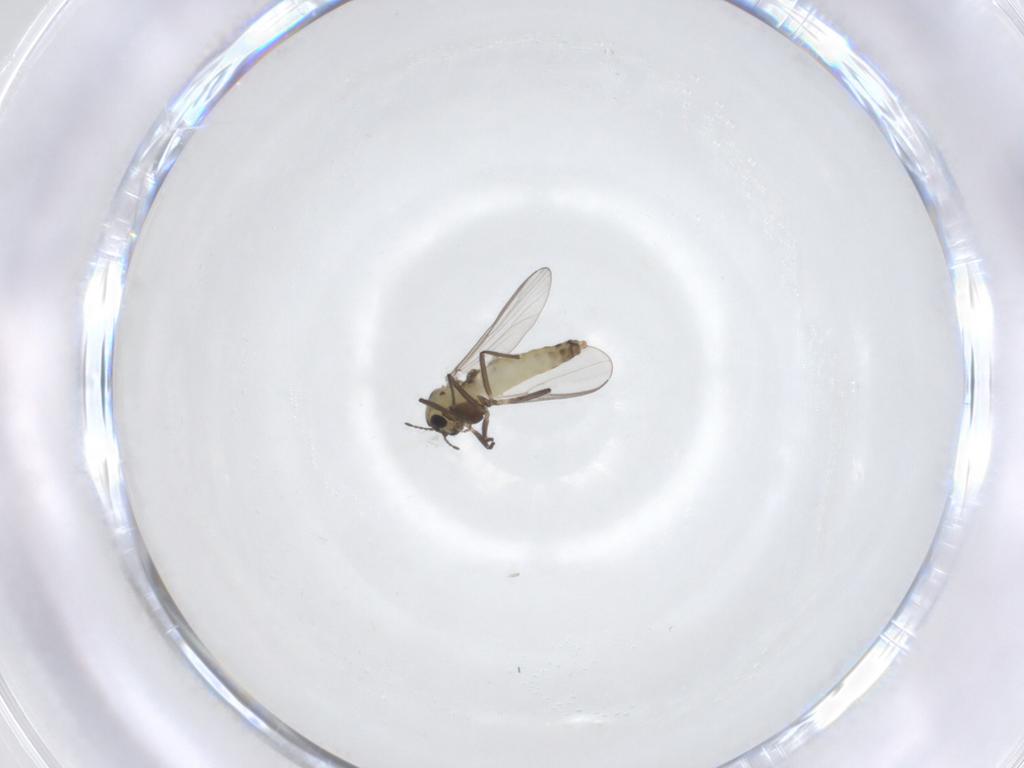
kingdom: Animalia
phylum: Arthropoda
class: Insecta
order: Diptera
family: Chironomidae
